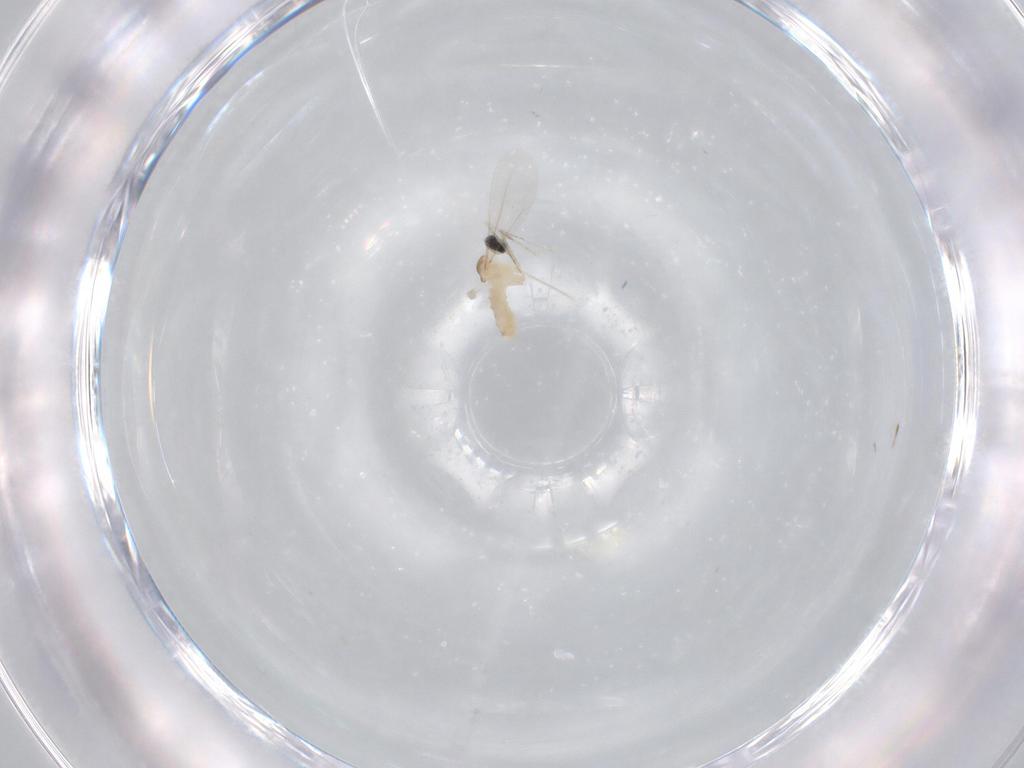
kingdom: Animalia
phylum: Arthropoda
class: Insecta
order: Diptera
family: Cecidomyiidae
